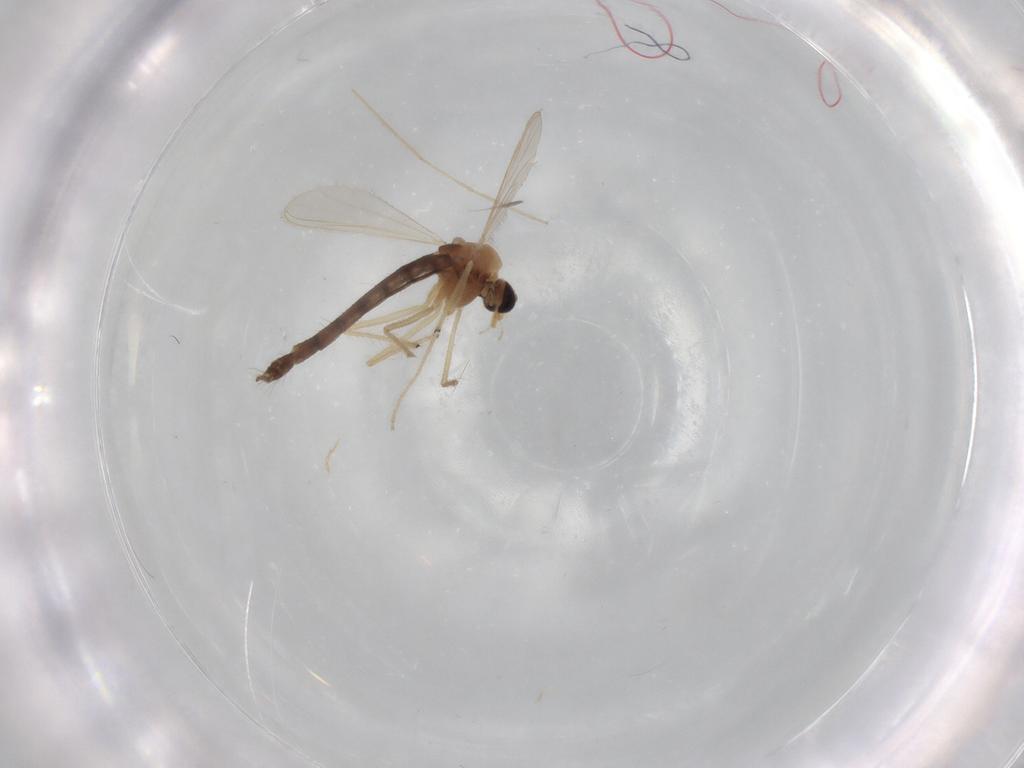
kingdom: Animalia
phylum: Arthropoda
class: Insecta
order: Diptera
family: Chironomidae
